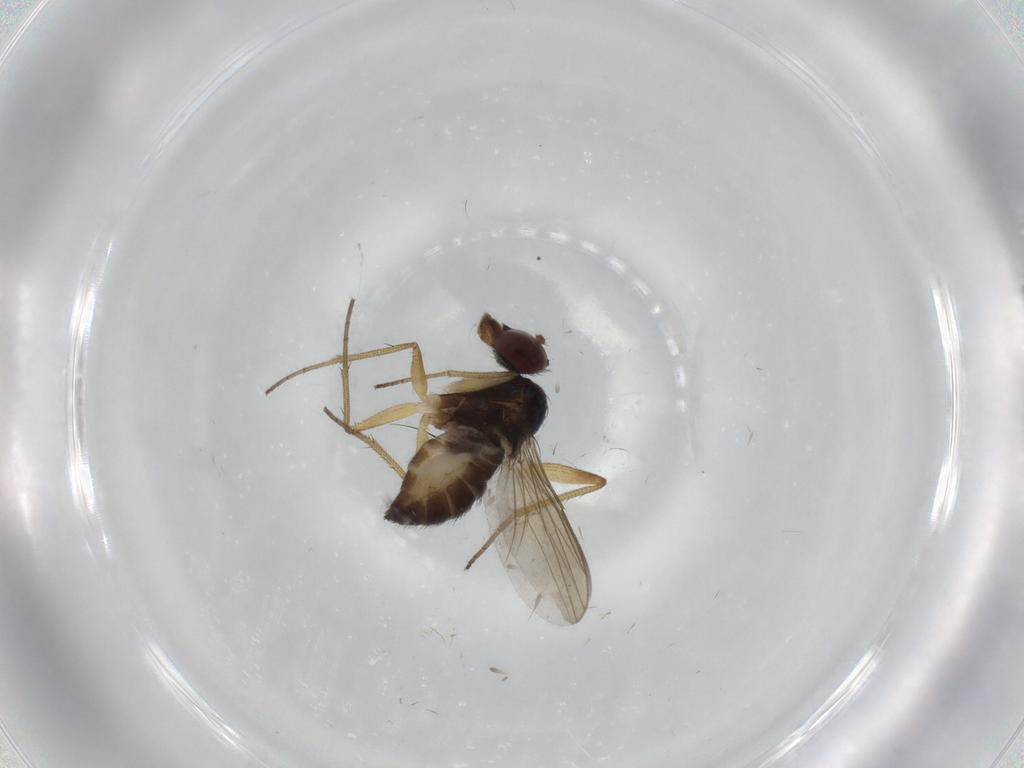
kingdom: Animalia
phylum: Arthropoda
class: Insecta
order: Diptera
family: Dolichopodidae
